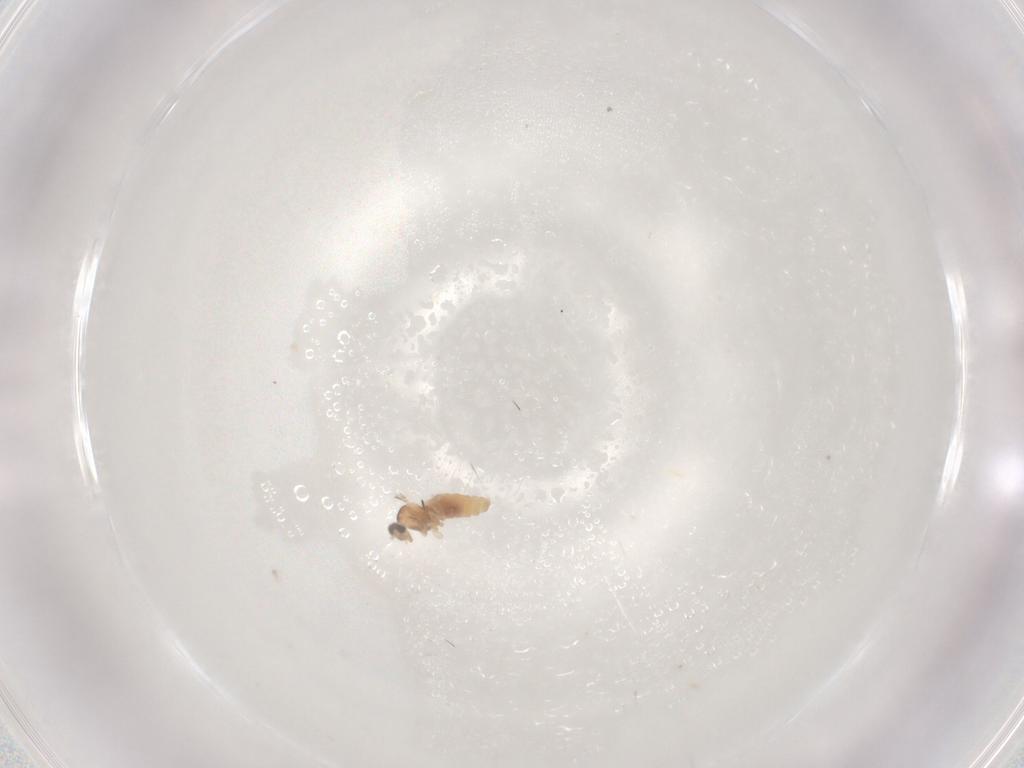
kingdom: Animalia
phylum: Arthropoda
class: Insecta
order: Diptera
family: Cecidomyiidae
